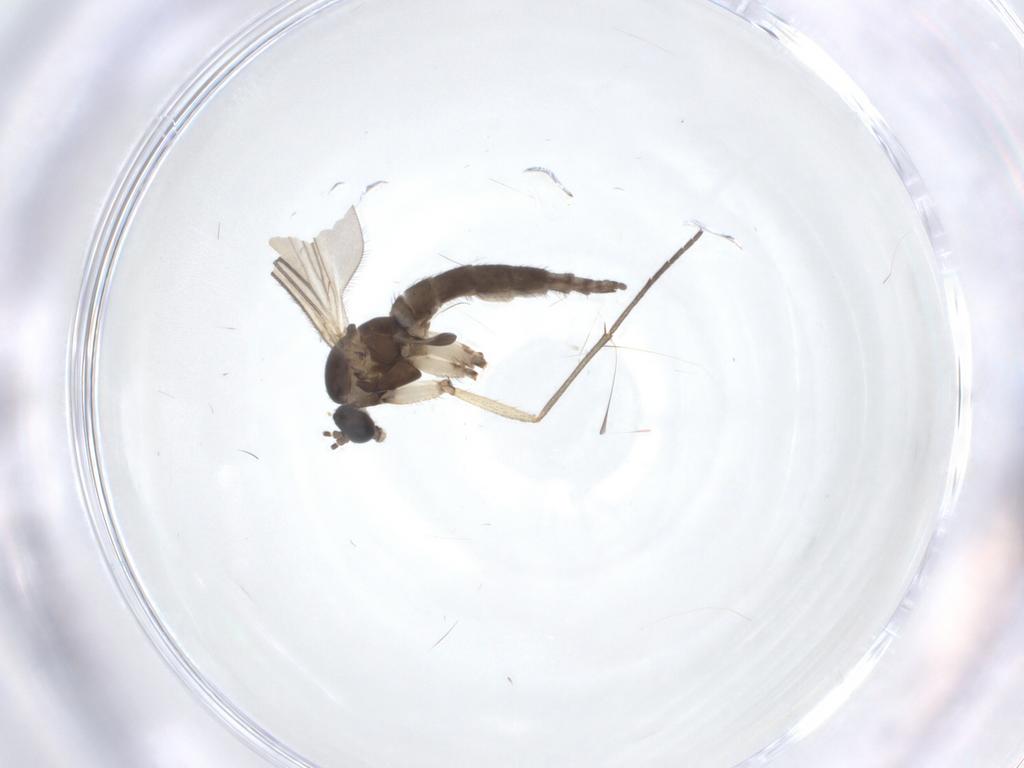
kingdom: Animalia
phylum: Arthropoda
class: Insecta
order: Diptera
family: Sciaridae
